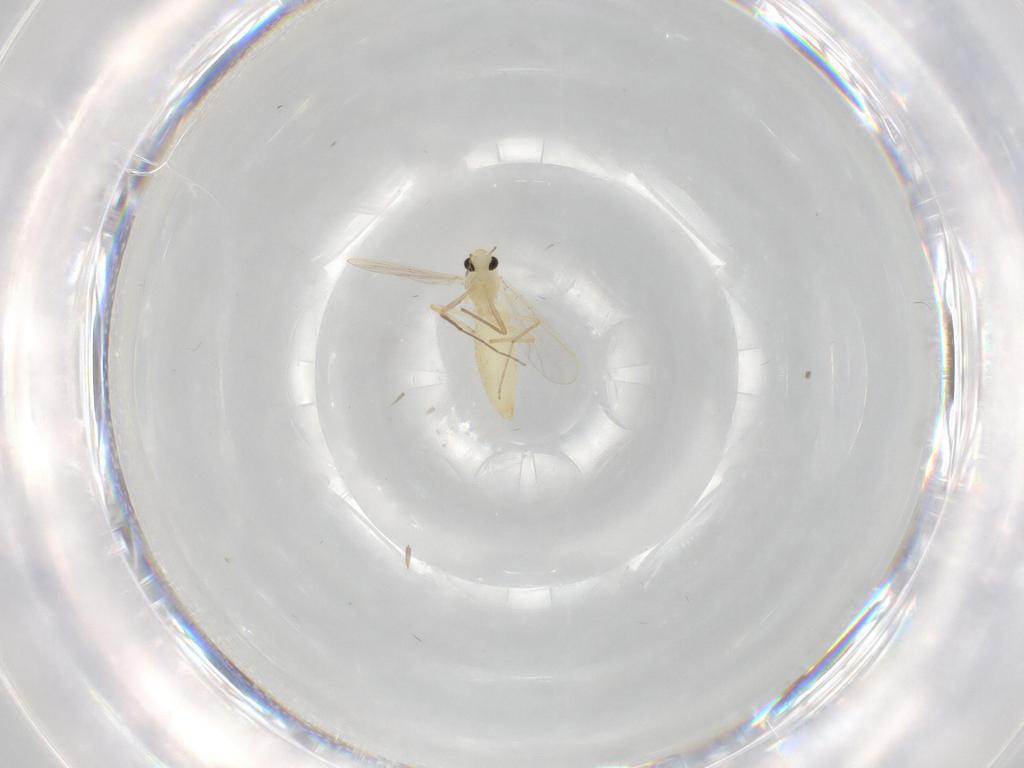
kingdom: Animalia
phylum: Arthropoda
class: Insecta
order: Diptera
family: Chironomidae
